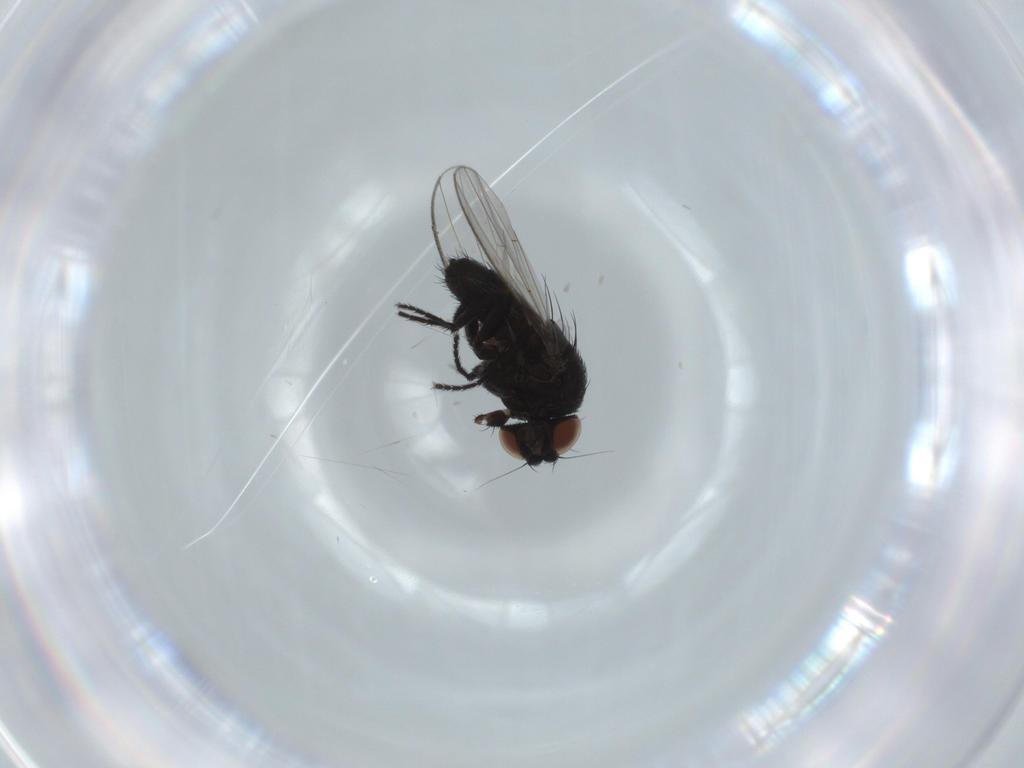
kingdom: Animalia
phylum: Arthropoda
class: Insecta
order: Diptera
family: Milichiidae
